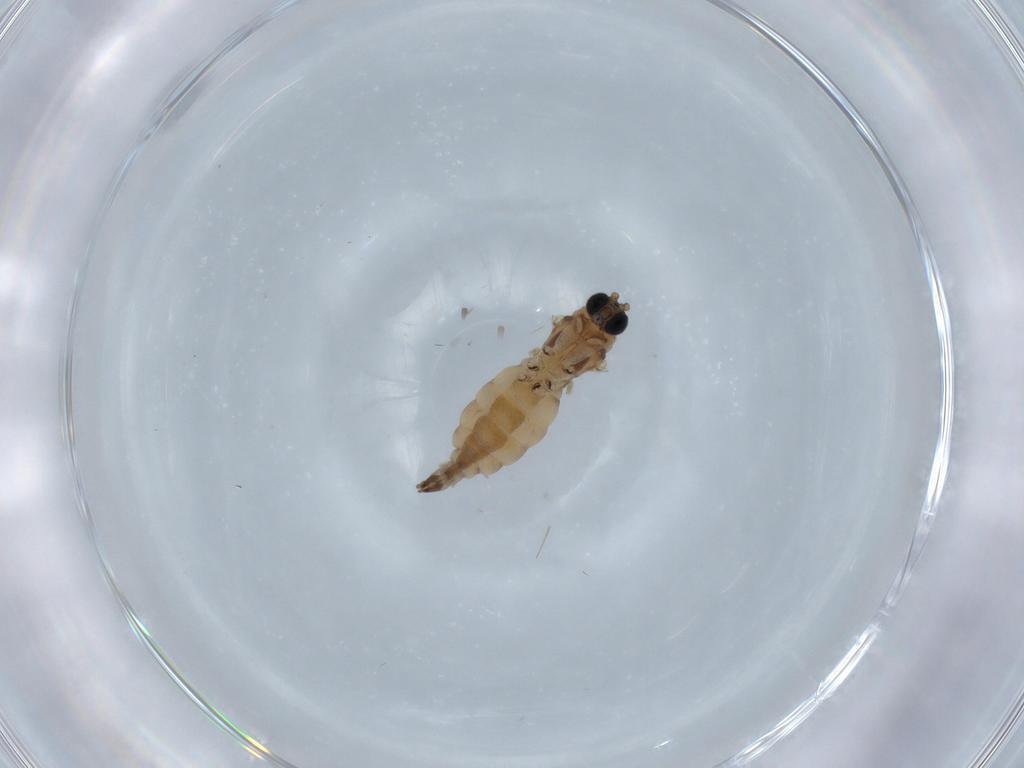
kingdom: Animalia
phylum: Arthropoda
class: Insecta
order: Diptera
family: Sciaridae
